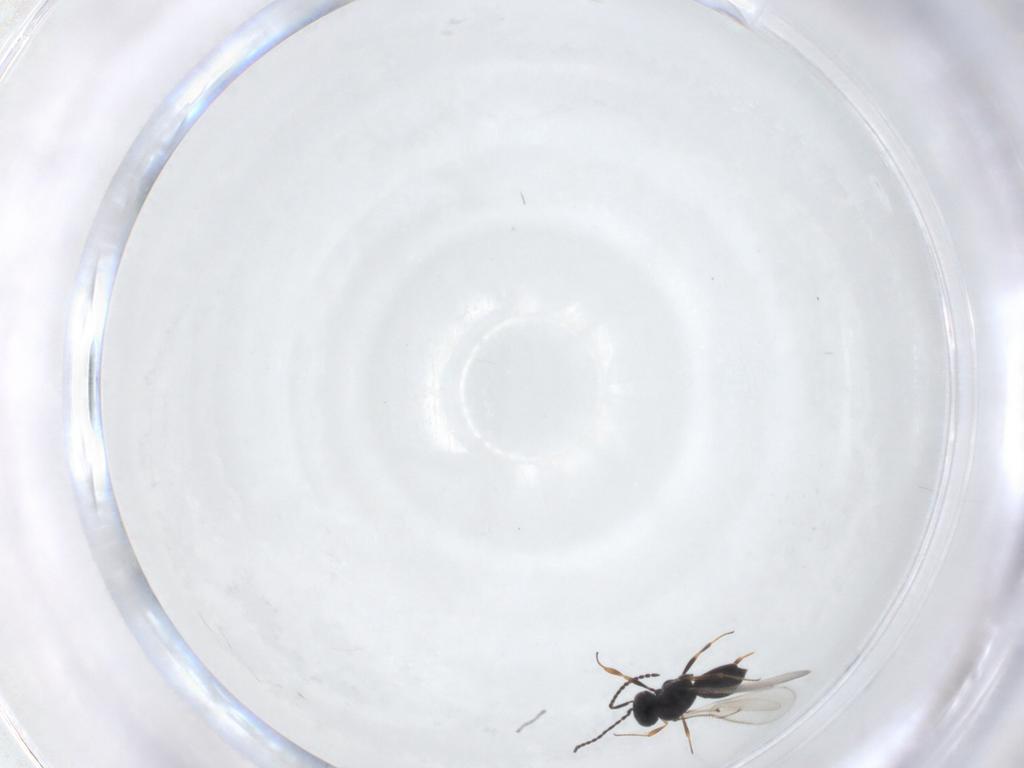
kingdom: Animalia
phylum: Arthropoda
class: Insecta
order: Hymenoptera
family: Scelionidae
